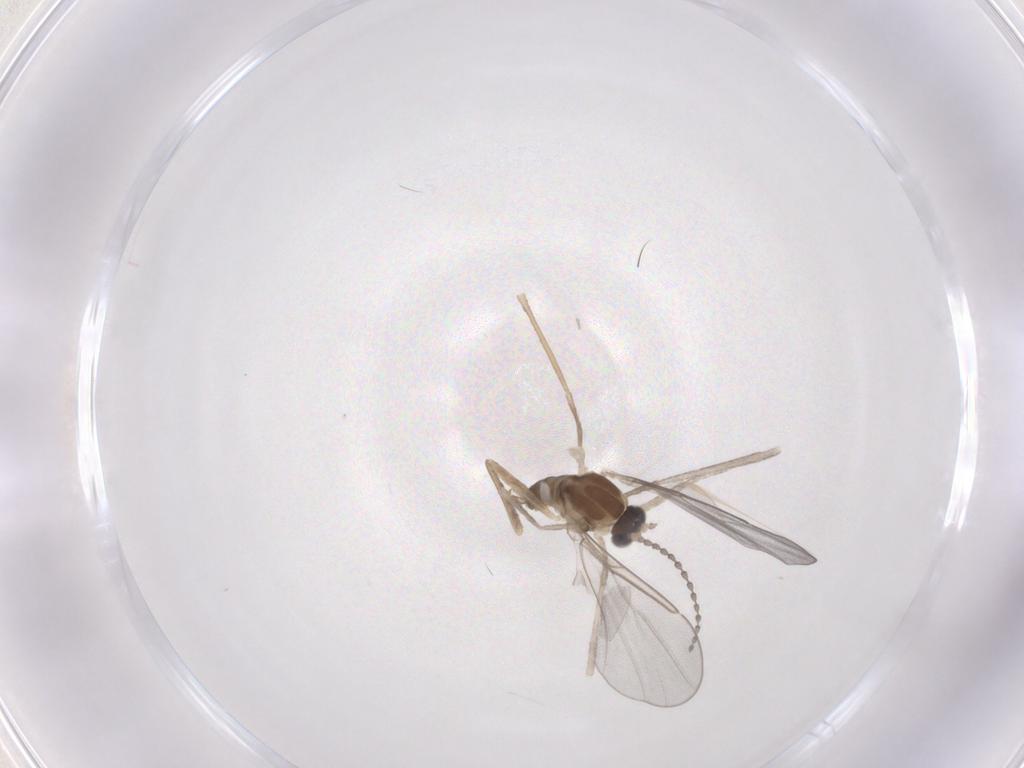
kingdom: Animalia
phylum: Arthropoda
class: Insecta
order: Diptera
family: Cecidomyiidae
